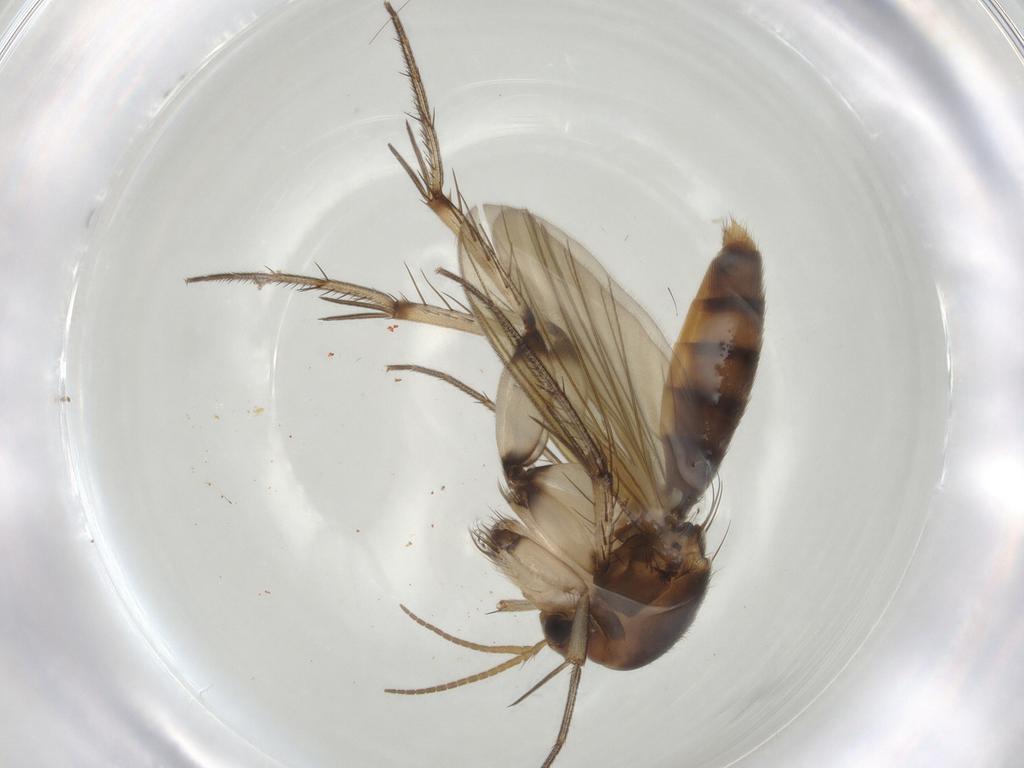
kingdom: Animalia
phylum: Arthropoda
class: Insecta
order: Diptera
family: Chironomidae
